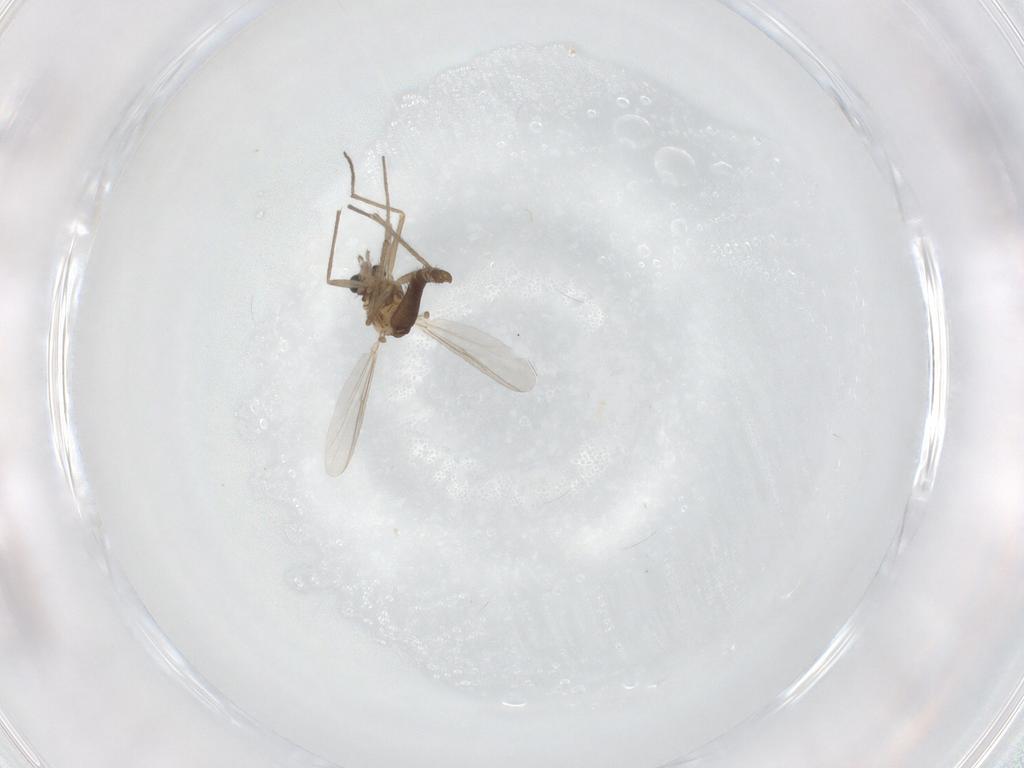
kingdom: Animalia
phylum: Arthropoda
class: Insecta
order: Diptera
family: Chironomidae
